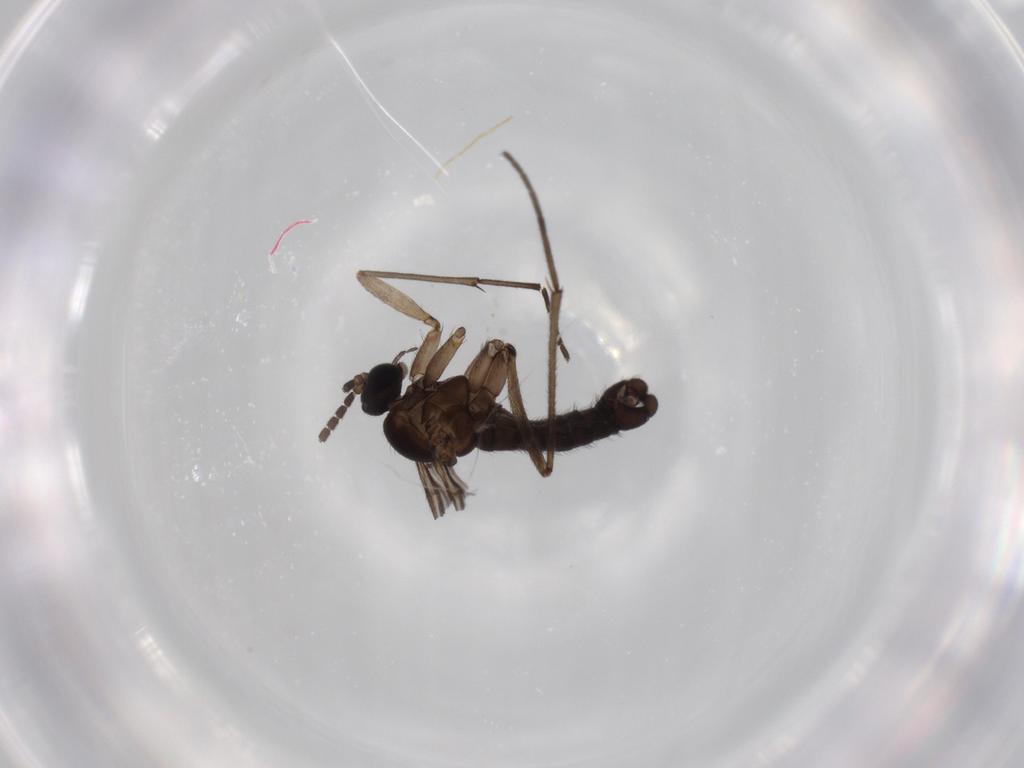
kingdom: Animalia
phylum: Arthropoda
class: Insecta
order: Diptera
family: Sciaridae
